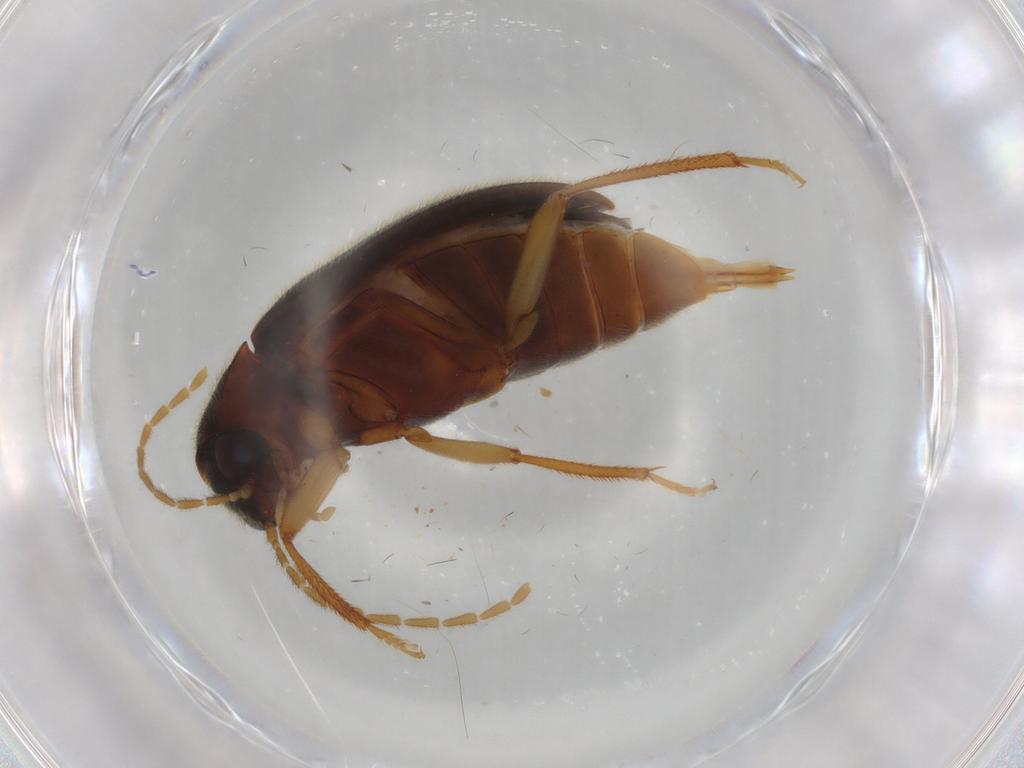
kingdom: Animalia
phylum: Arthropoda
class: Insecta
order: Coleoptera
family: Ptilodactylidae
